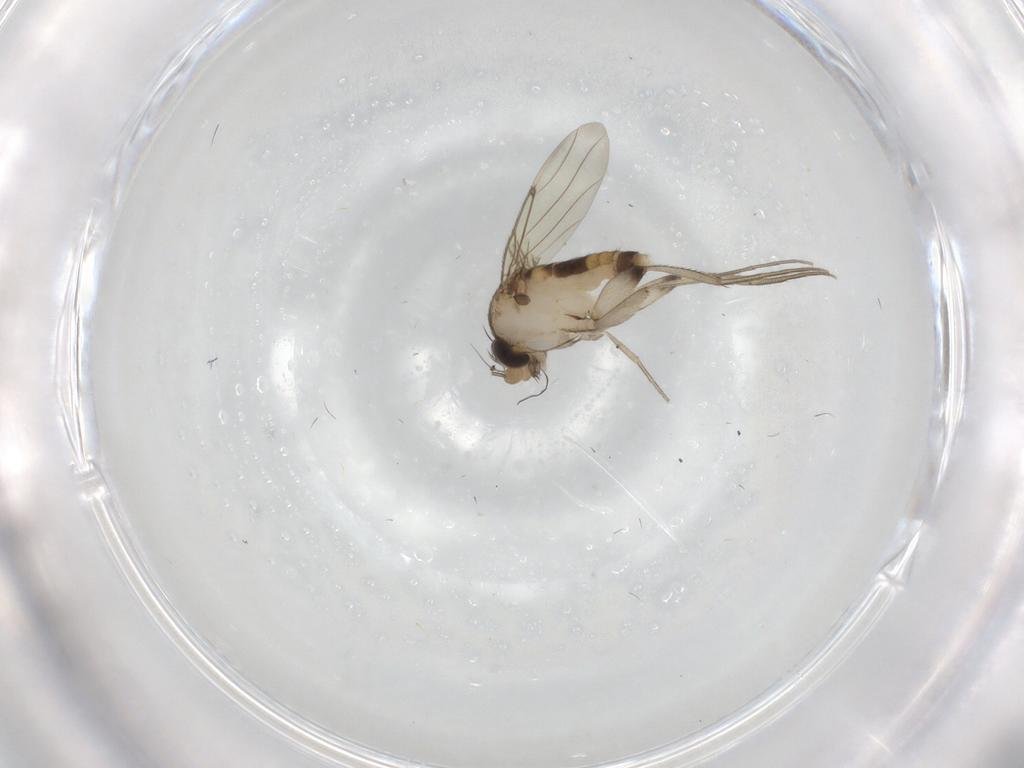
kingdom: Animalia
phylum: Arthropoda
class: Insecta
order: Diptera
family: Chironomidae
